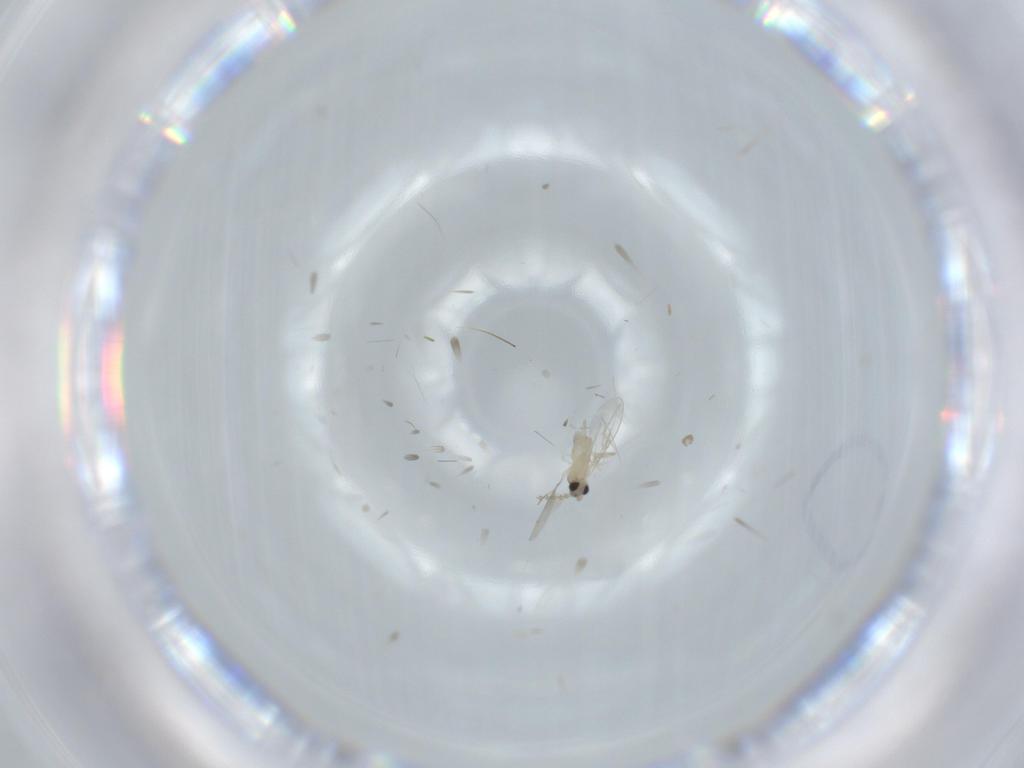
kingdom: Animalia
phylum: Arthropoda
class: Insecta
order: Diptera
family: Cecidomyiidae
